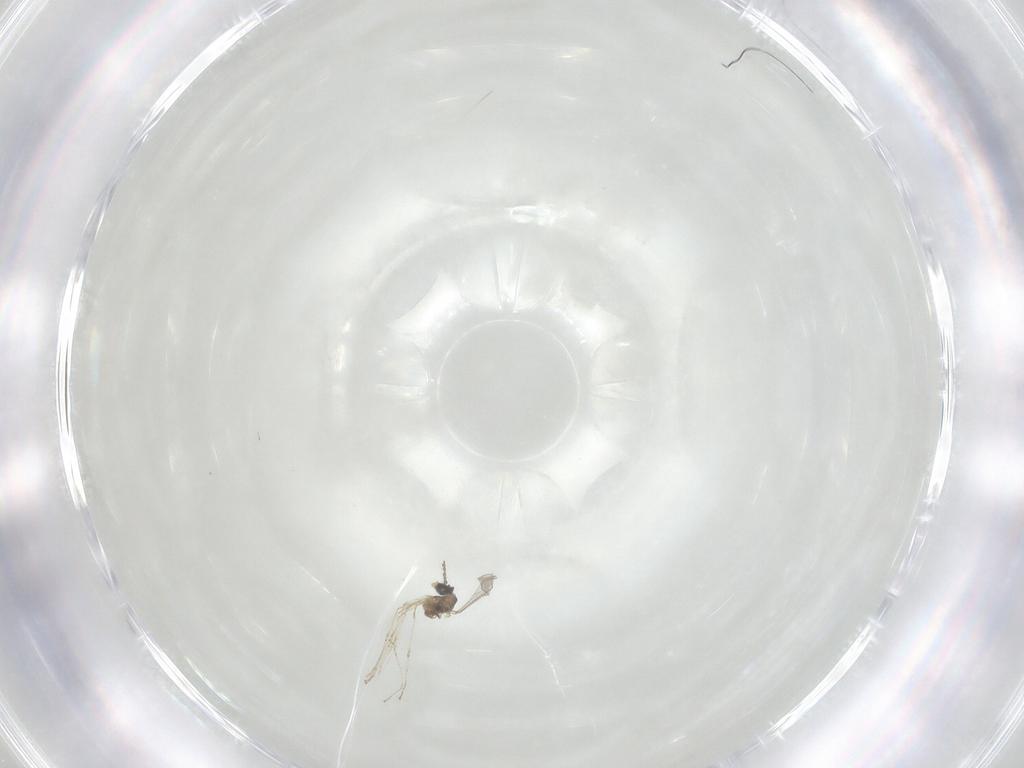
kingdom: Animalia
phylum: Arthropoda
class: Insecta
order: Diptera
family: Cecidomyiidae
